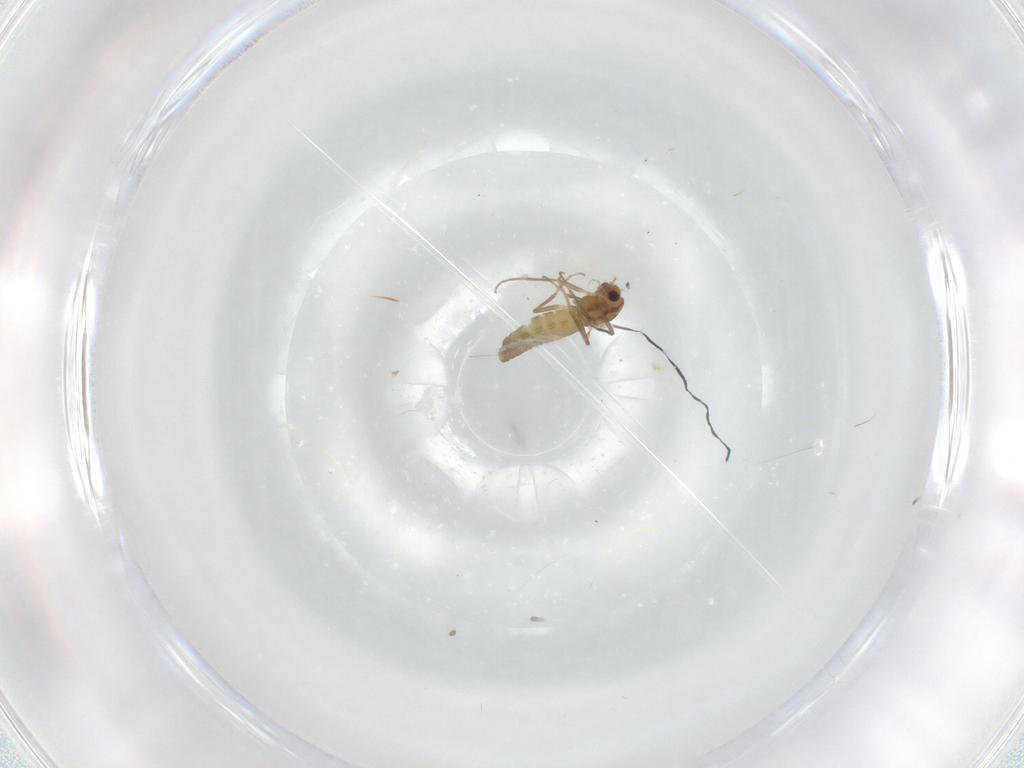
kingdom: Animalia
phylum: Arthropoda
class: Insecta
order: Diptera
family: Chironomidae
